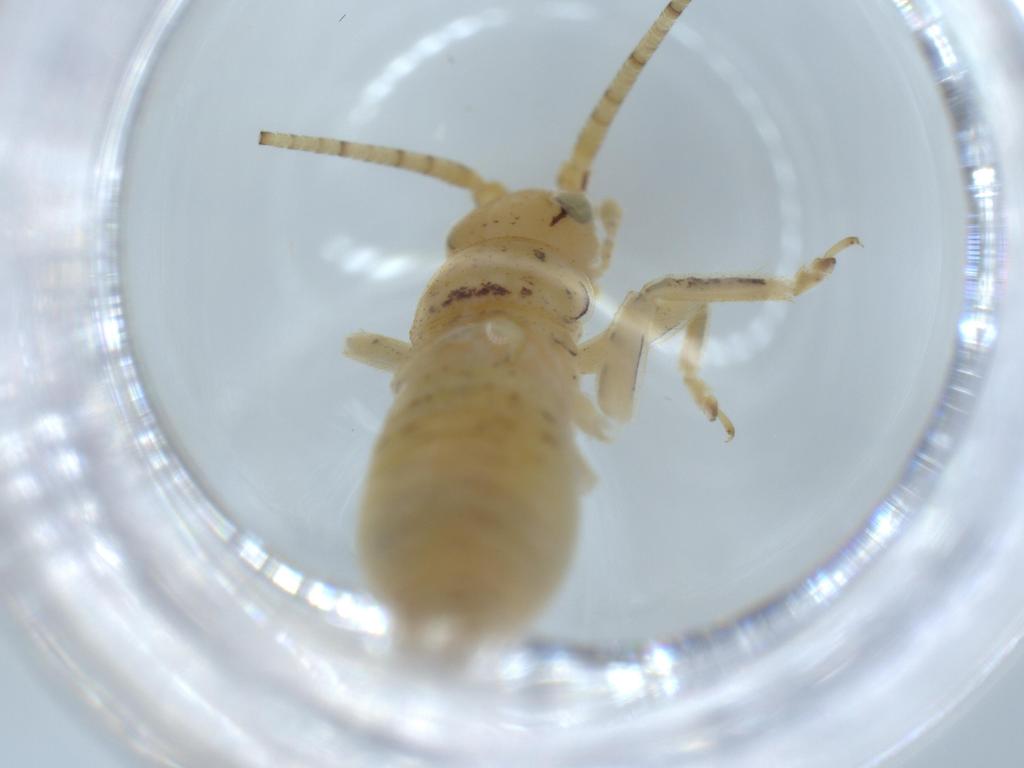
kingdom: Animalia
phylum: Arthropoda
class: Insecta
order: Orthoptera
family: Gryllidae
